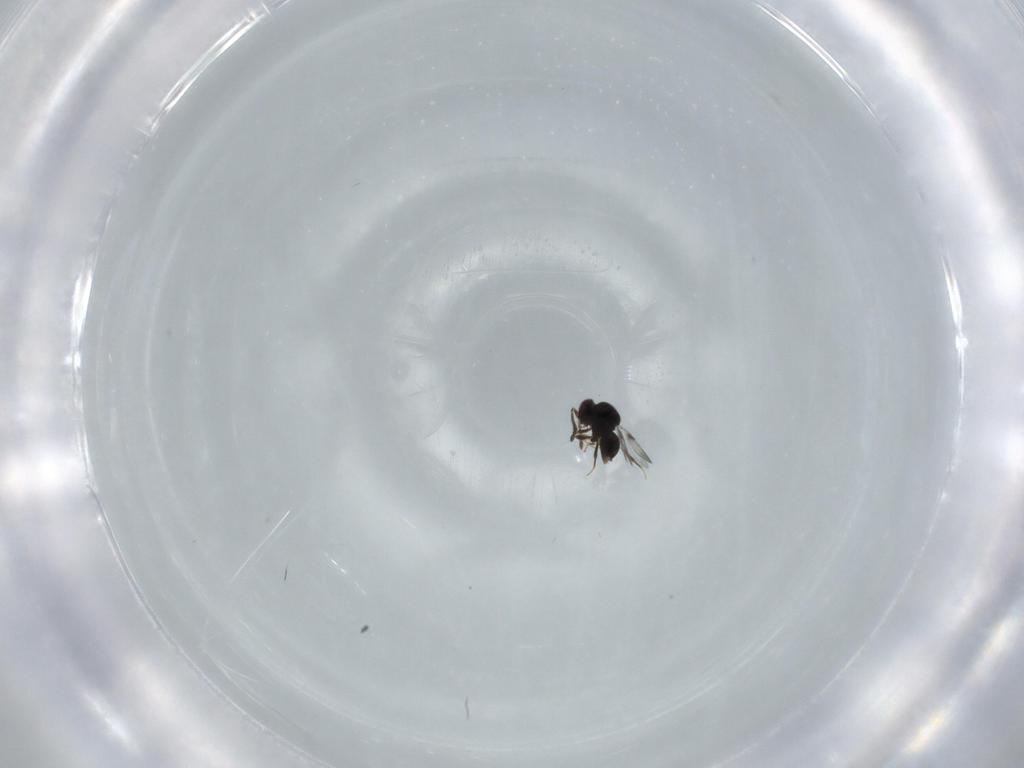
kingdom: Animalia
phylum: Arthropoda
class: Insecta
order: Hymenoptera
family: Ceraphronidae
